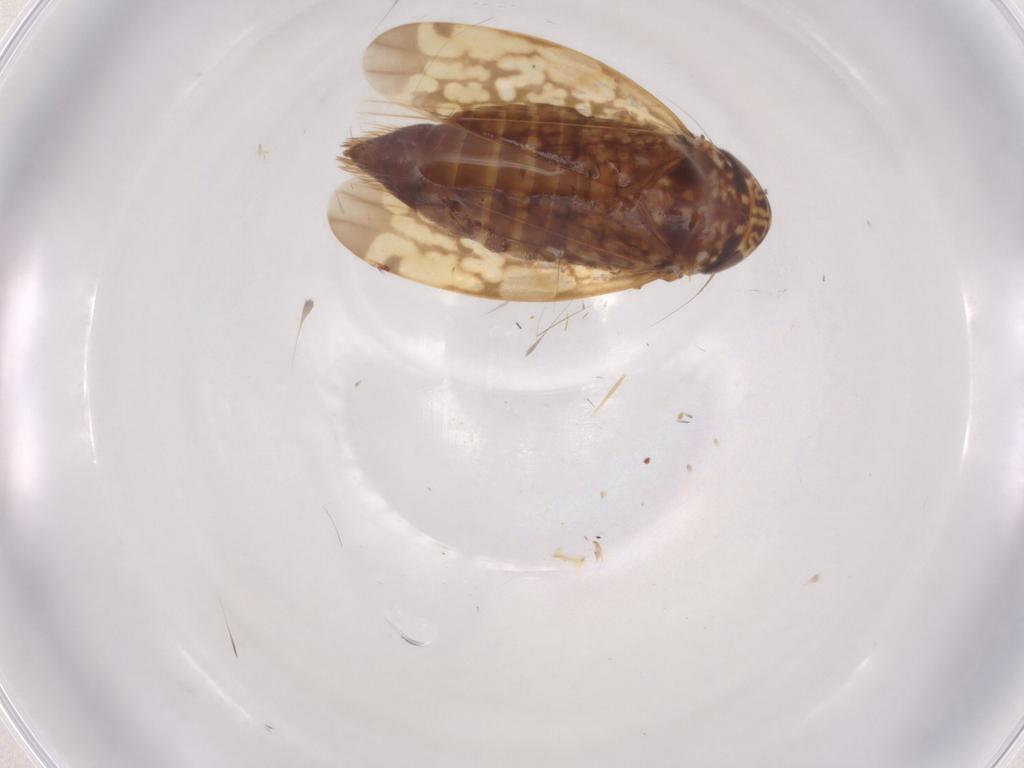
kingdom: Animalia
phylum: Arthropoda
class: Insecta
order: Hemiptera
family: Cicadellidae
